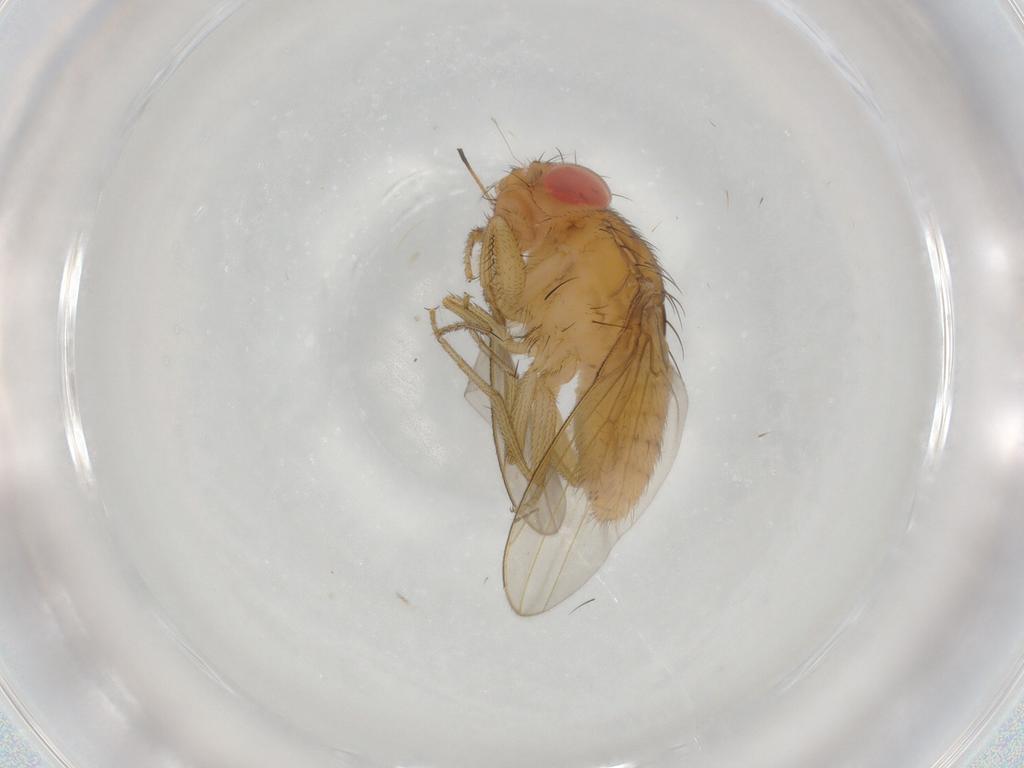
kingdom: Animalia
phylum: Arthropoda
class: Insecta
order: Diptera
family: Drosophilidae
